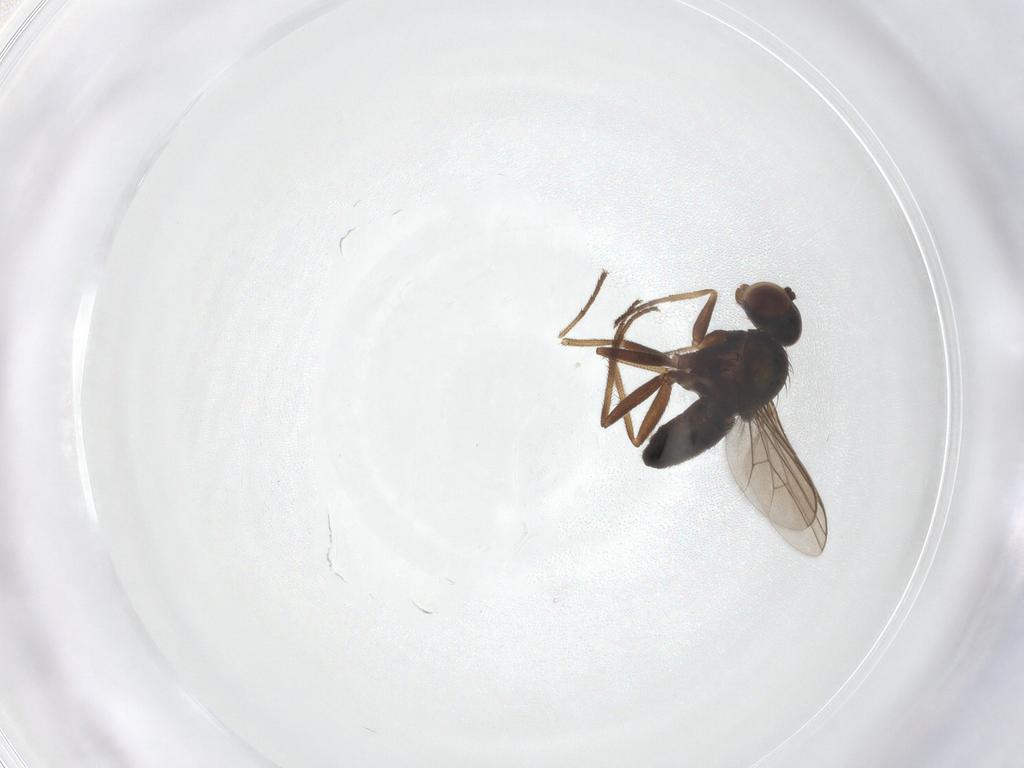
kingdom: Animalia
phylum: Arthropoda
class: Insecta
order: Diptera
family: Dolichopodidae
